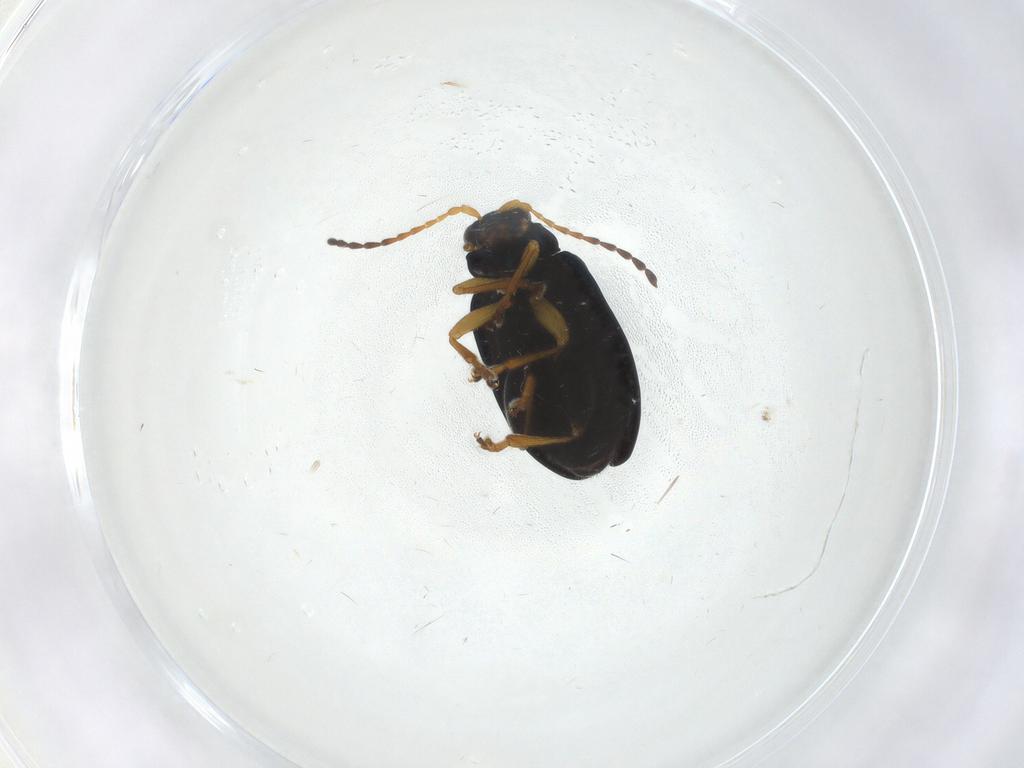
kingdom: Animalia
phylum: Arthropoda
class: Insecta
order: Coleoptera
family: Chrysomelidae
